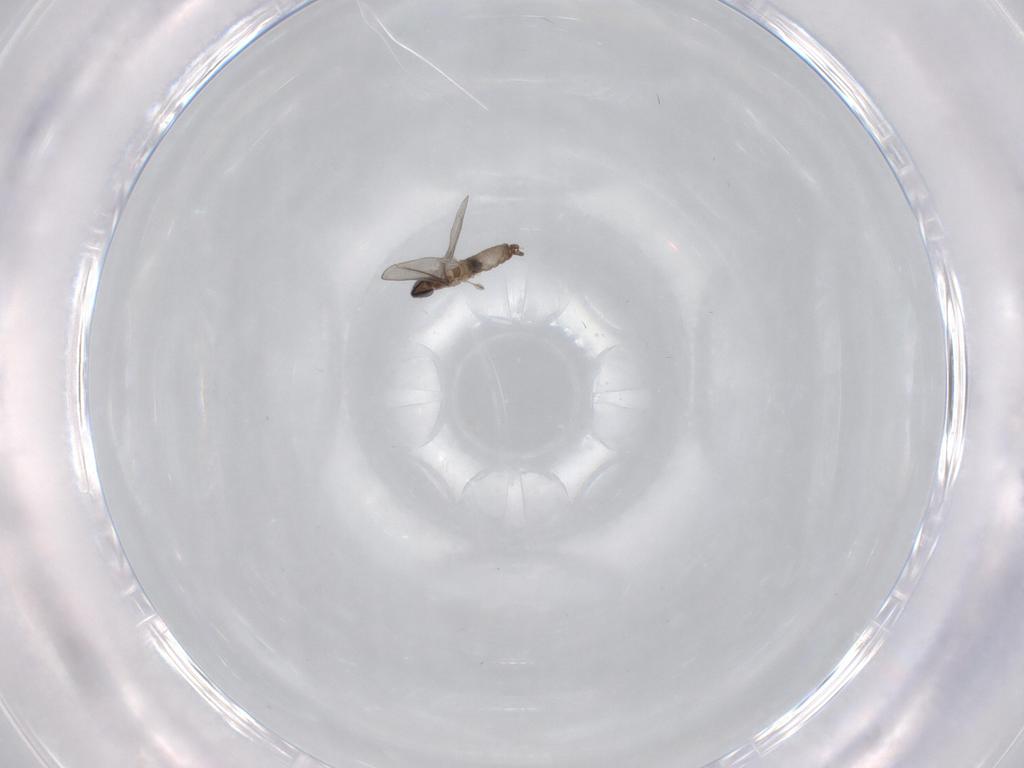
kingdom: Animalia
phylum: Arthropoda
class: Insecta
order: Diptera
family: Cecidomyiidae
